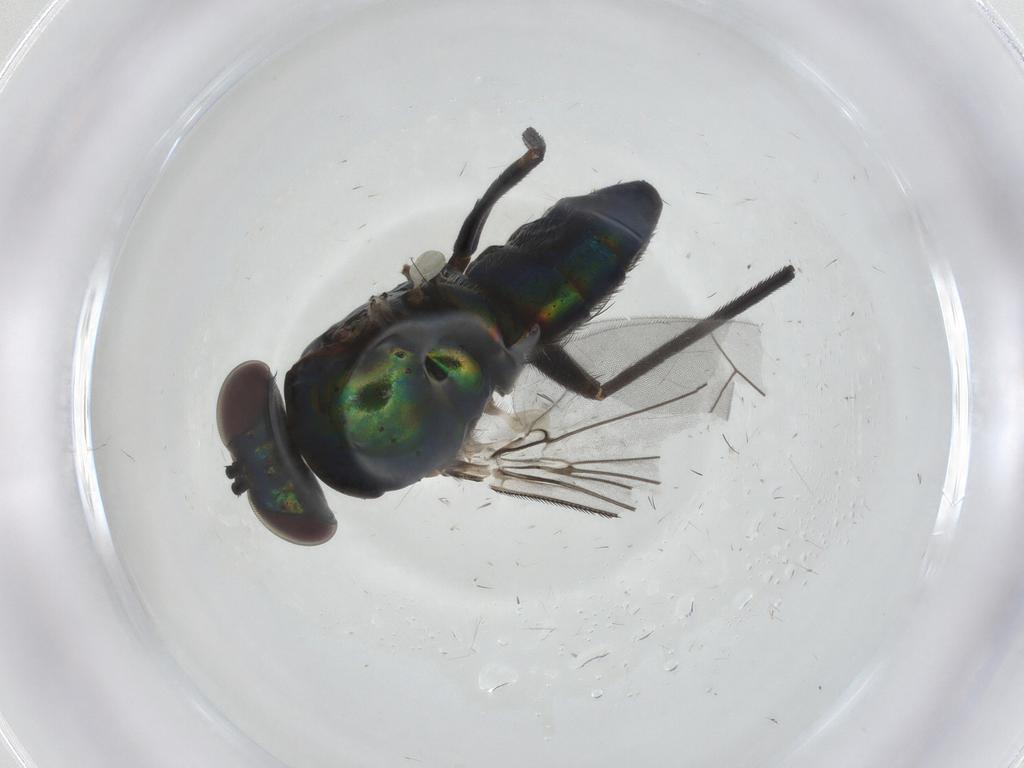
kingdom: Animalia
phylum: Arthropoda
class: Insecta
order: Diptera
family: Dolichopodidae
